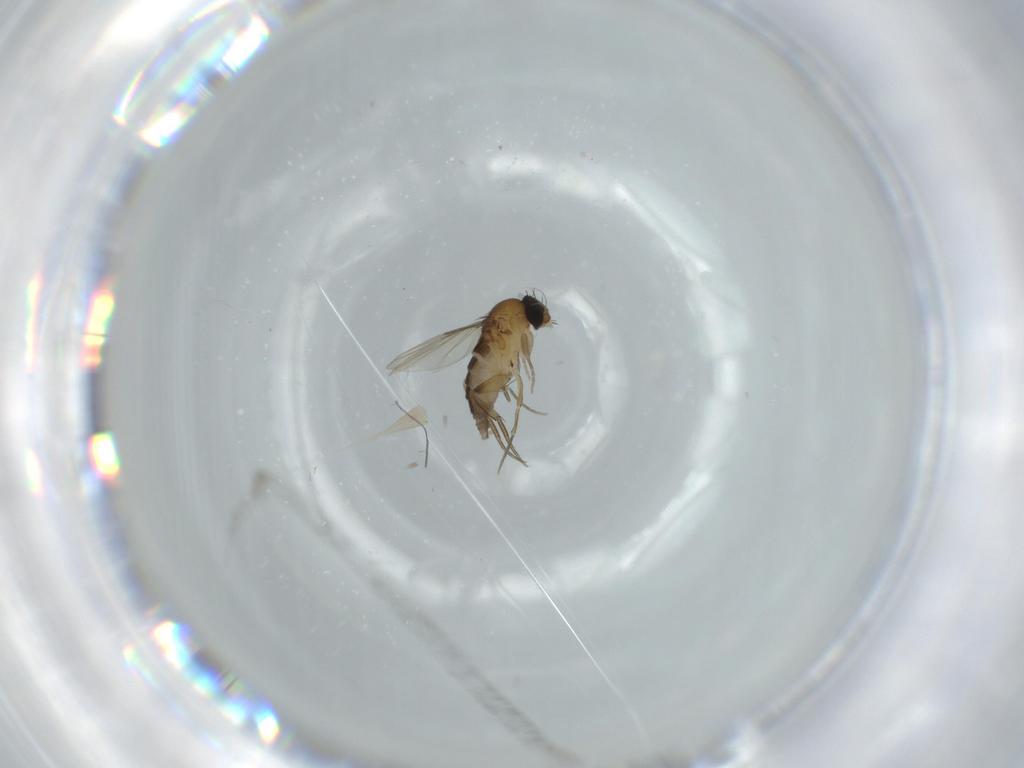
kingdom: Animalia
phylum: Arthropoda
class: Insecta
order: Diptera
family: Phoridae
